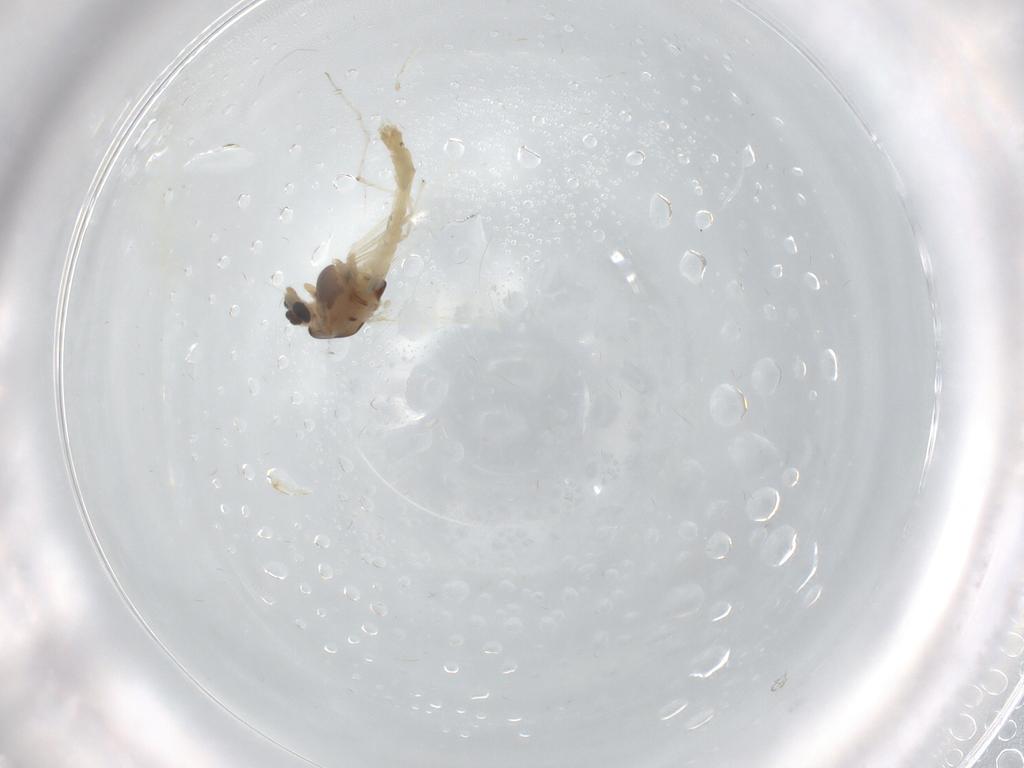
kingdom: Animalia
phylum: Arthropoda
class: Insecta
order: Diptera
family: Chironomidae
